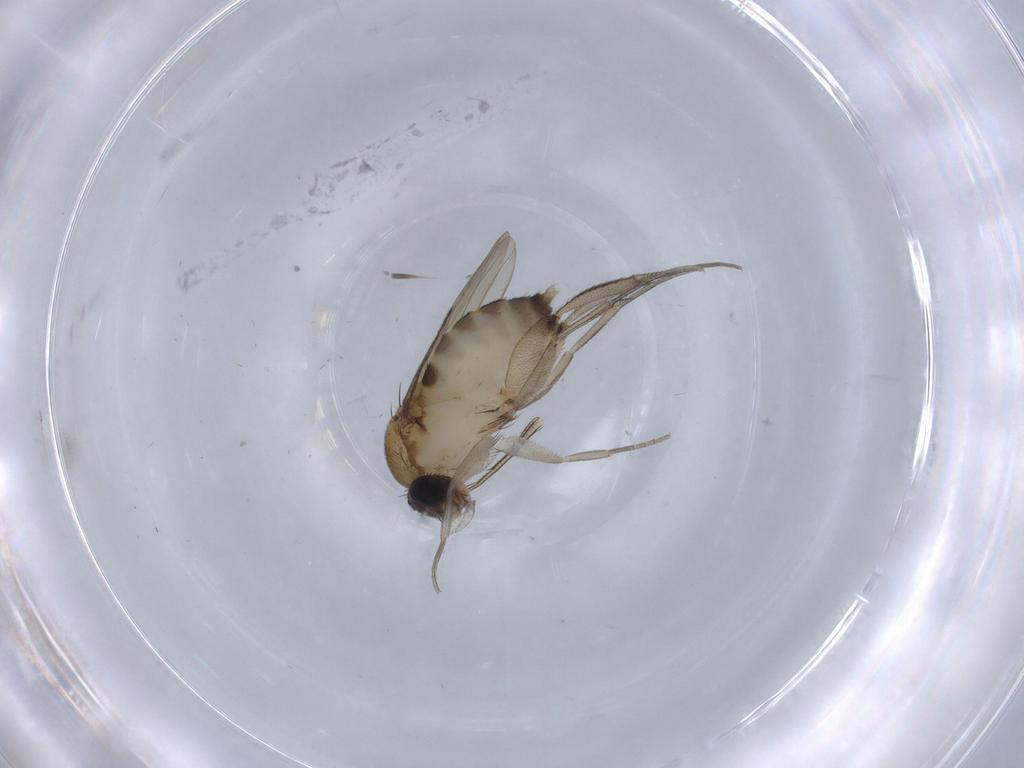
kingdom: Animalia
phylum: Arthropoda
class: Insecta
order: Diptera
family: Phoridae
